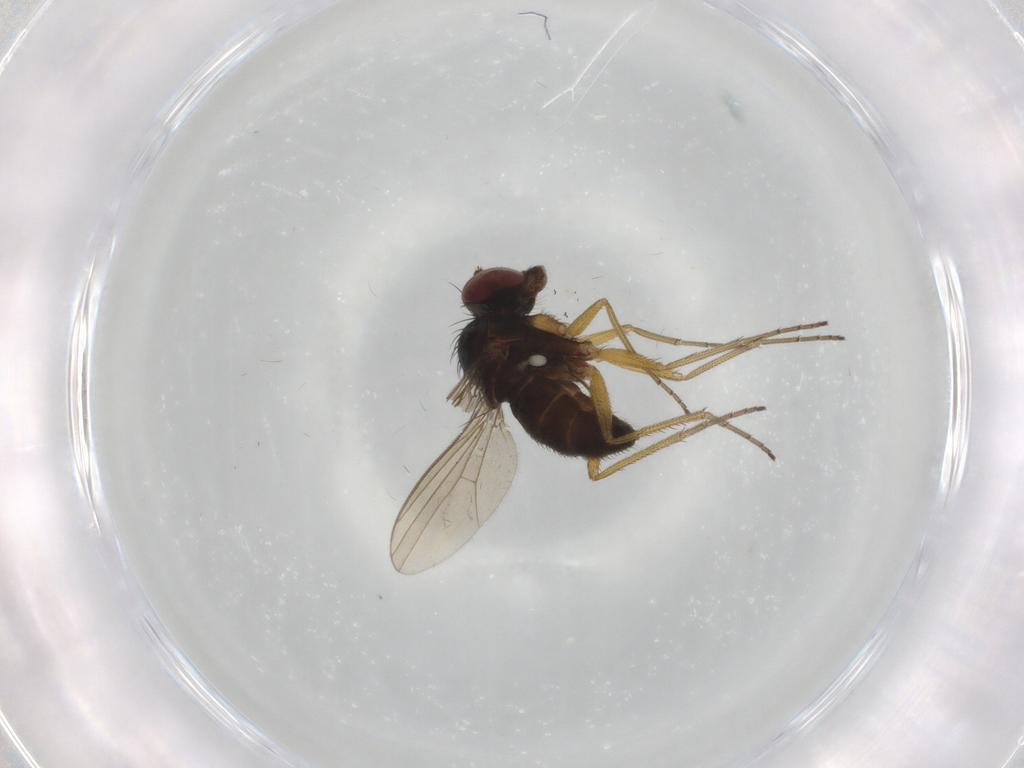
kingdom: Animalia
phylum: Arthropoda
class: Insecta
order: Diptera
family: Dolichopodidae
